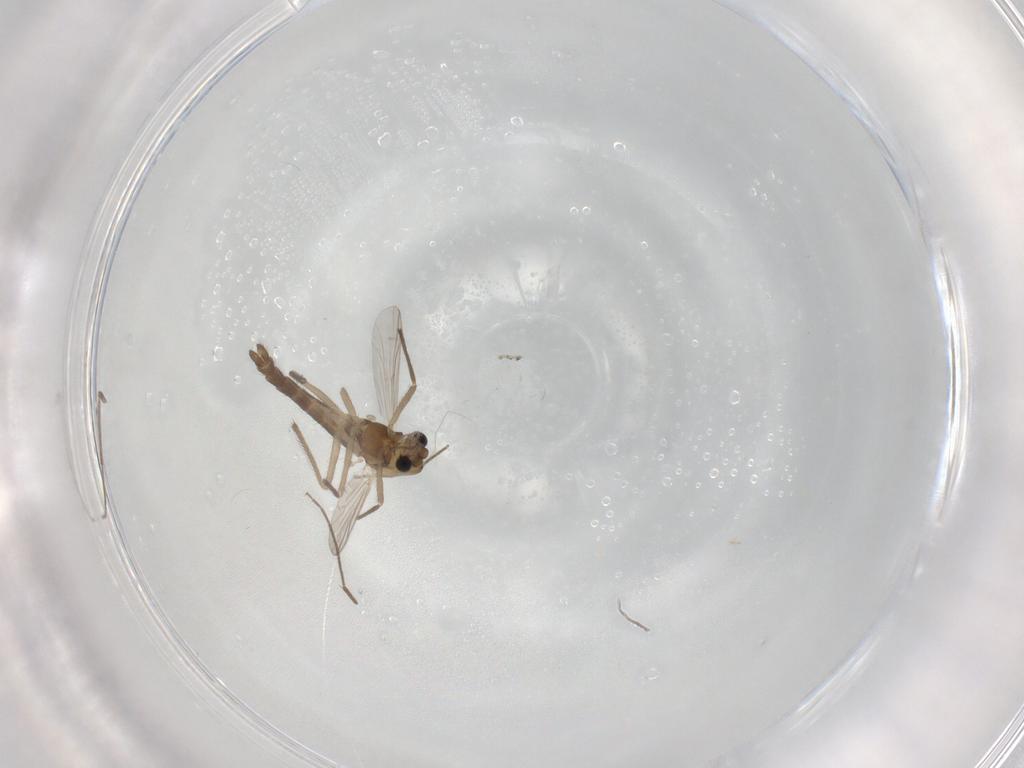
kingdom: Animalia
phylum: Arthropoda
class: Insecta
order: Diptera
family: Chironomidae
